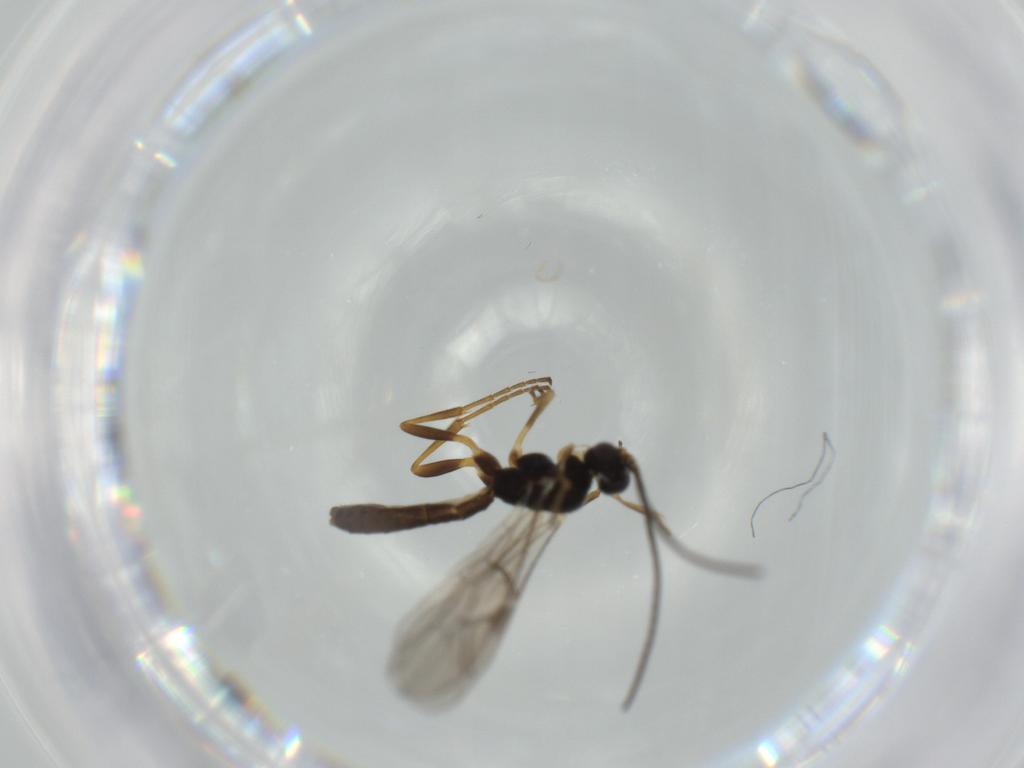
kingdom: Animalia
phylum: Arthropoda
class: Insecta
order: Hymenoptera
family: Ichneumonidae
